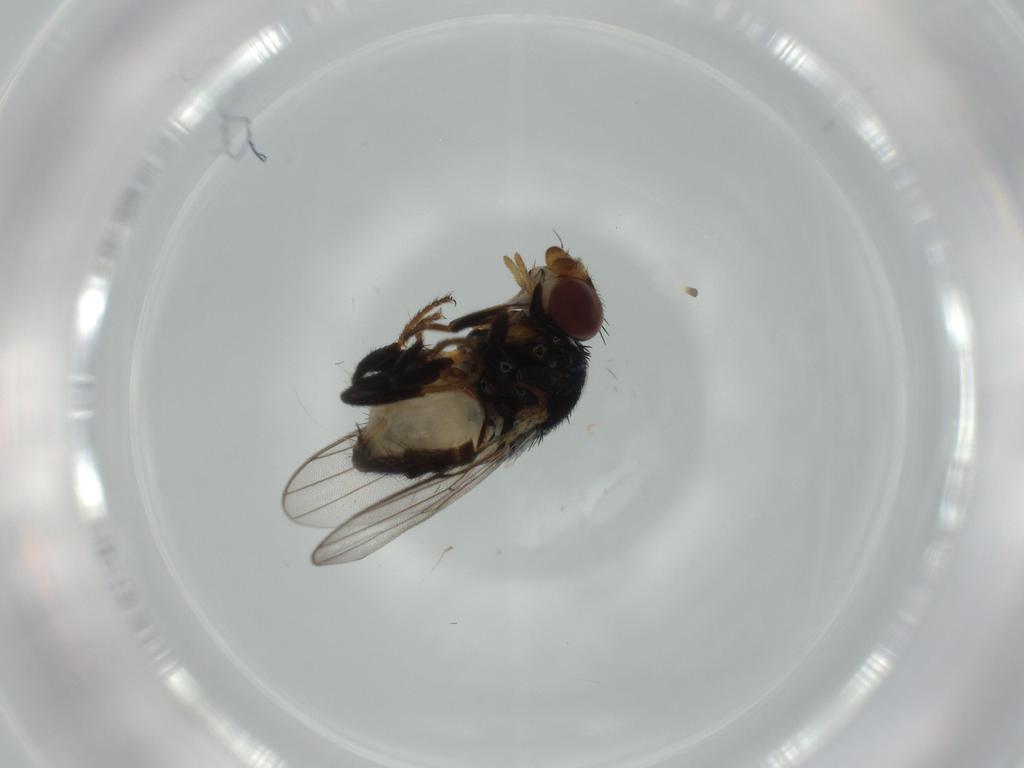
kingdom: Animalia
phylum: Arthropoda
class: Insecta
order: Diptera
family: Chloropidae
